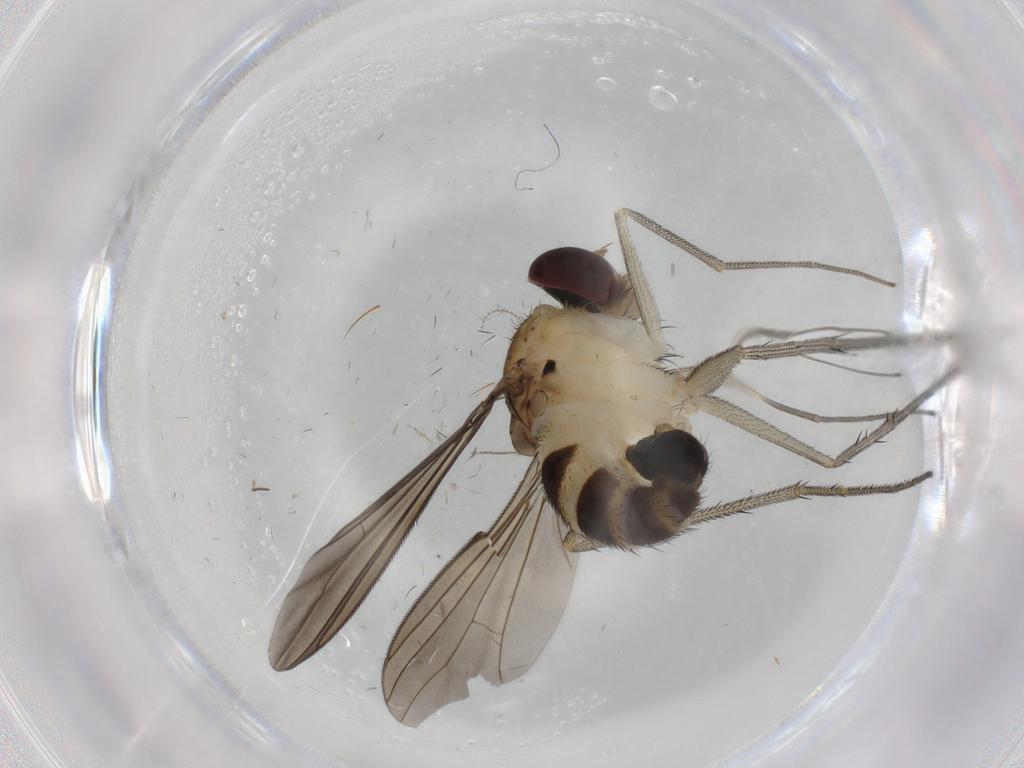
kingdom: Animalia
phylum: Arthropoda
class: Insecta
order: Diptera
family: Dolichopodidae
